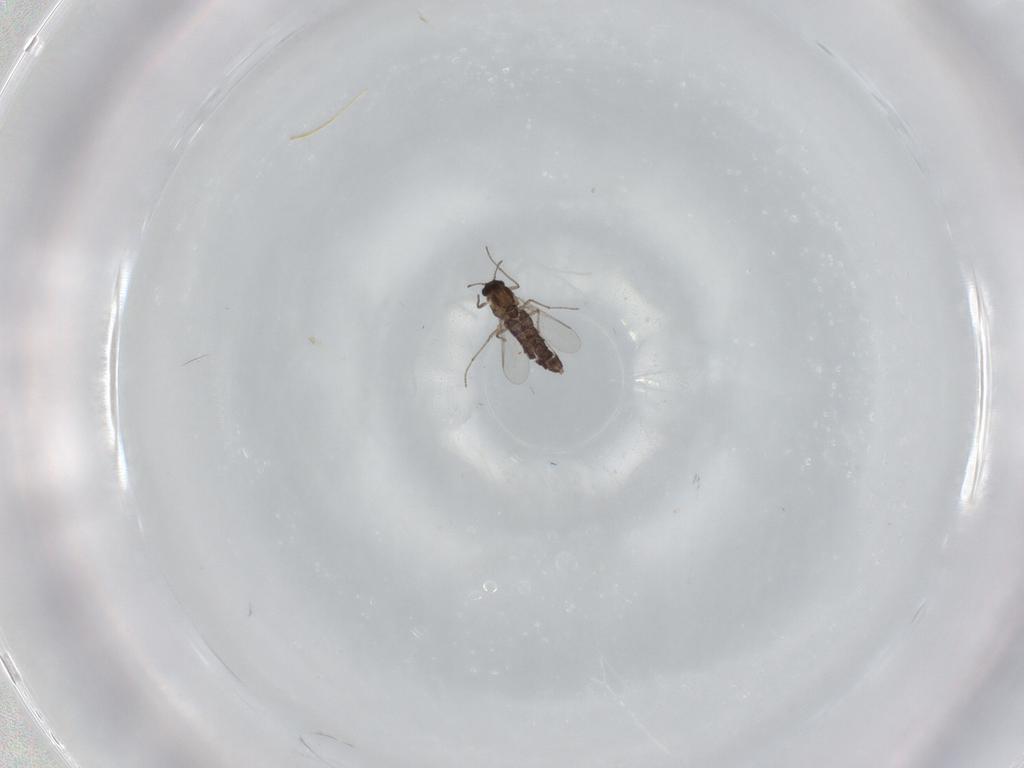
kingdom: Animalia
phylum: Arthropoda
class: Insecta
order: Diptera
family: Chironomidae
